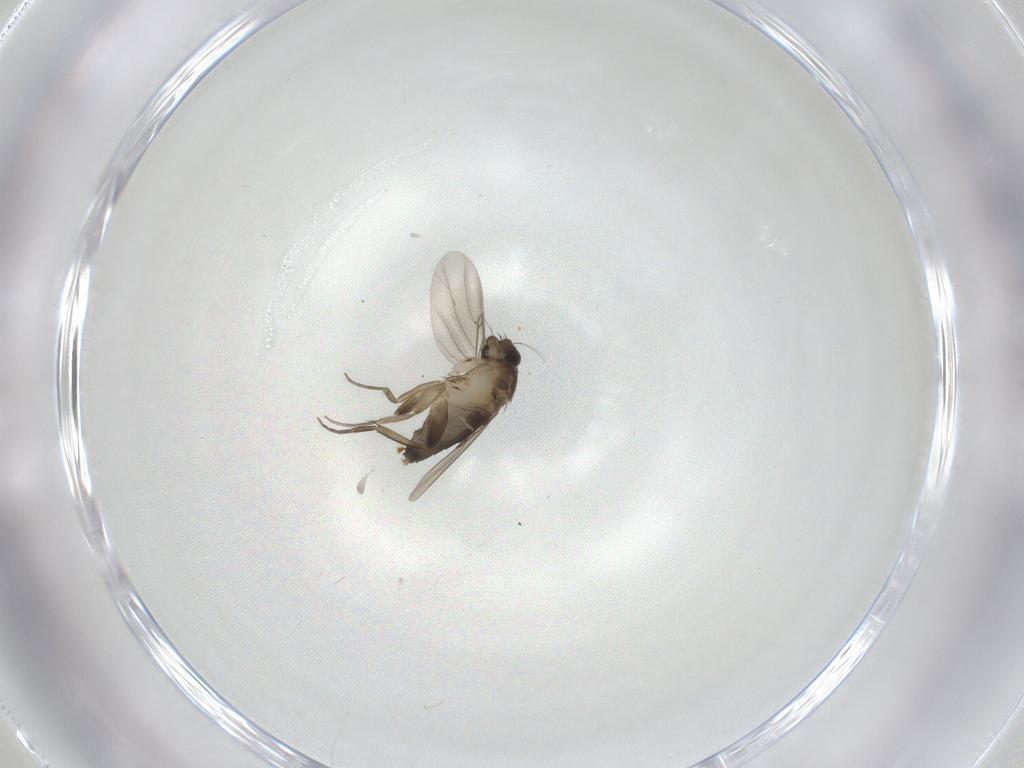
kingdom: Animalia
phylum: Arthropoda
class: Insecta
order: Diptera
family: Phoridae
